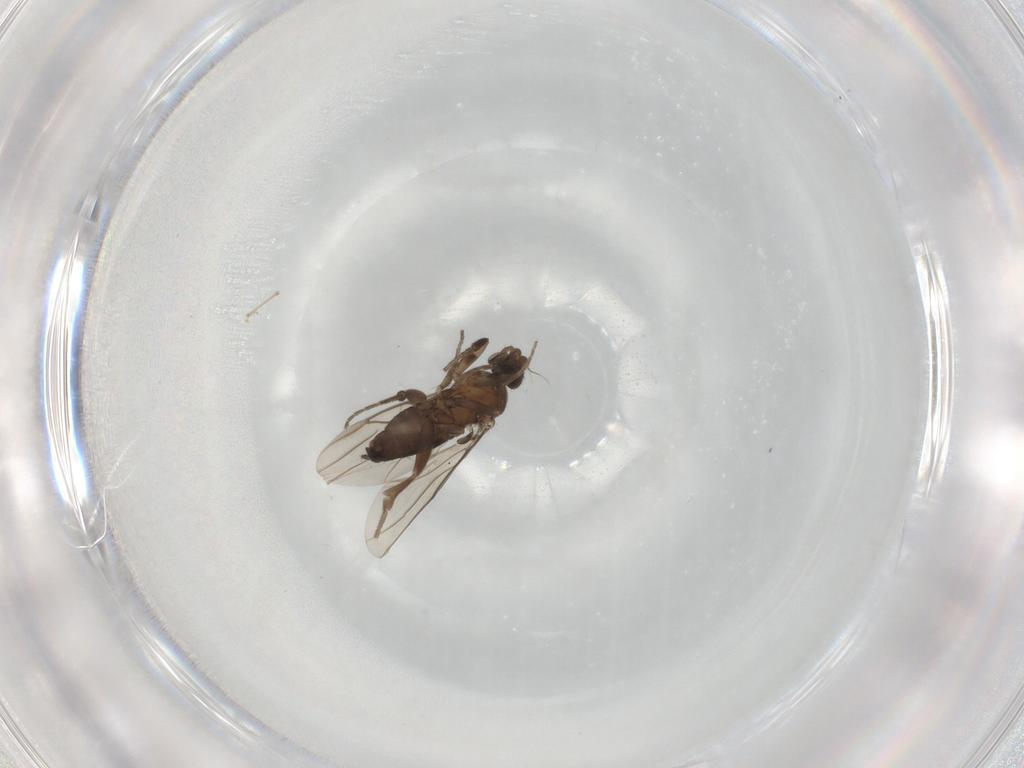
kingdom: Animalia
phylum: Arthropoda
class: Insecta
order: Diptera
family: Phoridae
